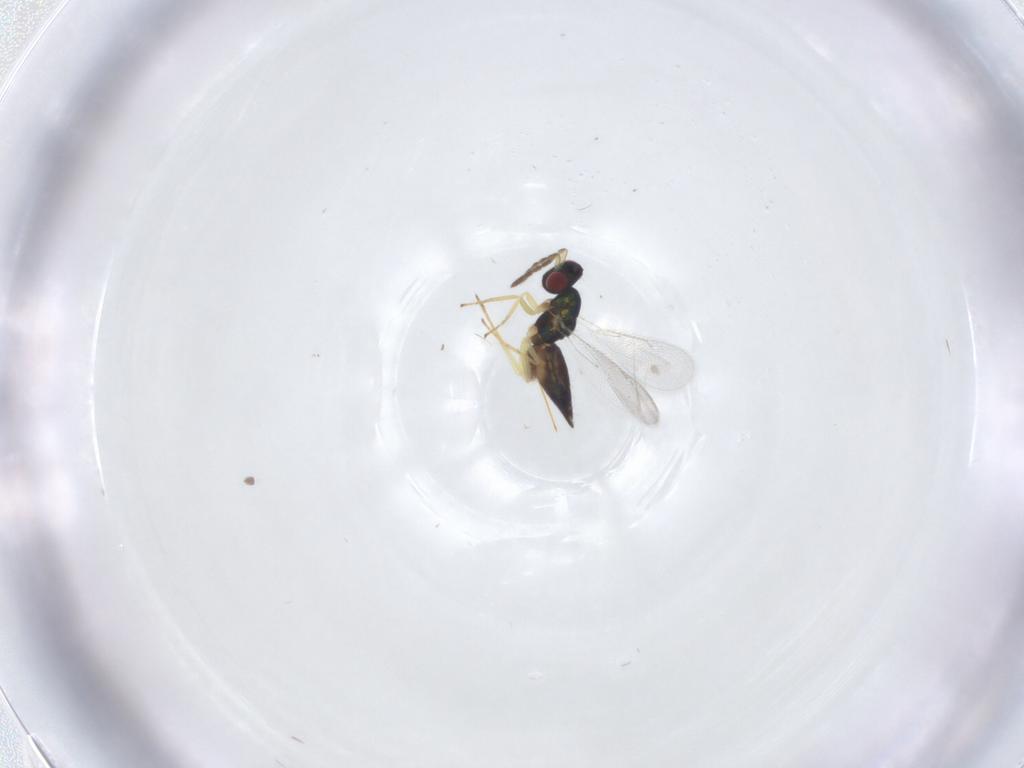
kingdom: Animalia
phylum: Arthropoda
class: Insecta
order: Hymenoptera
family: Eulophidae
